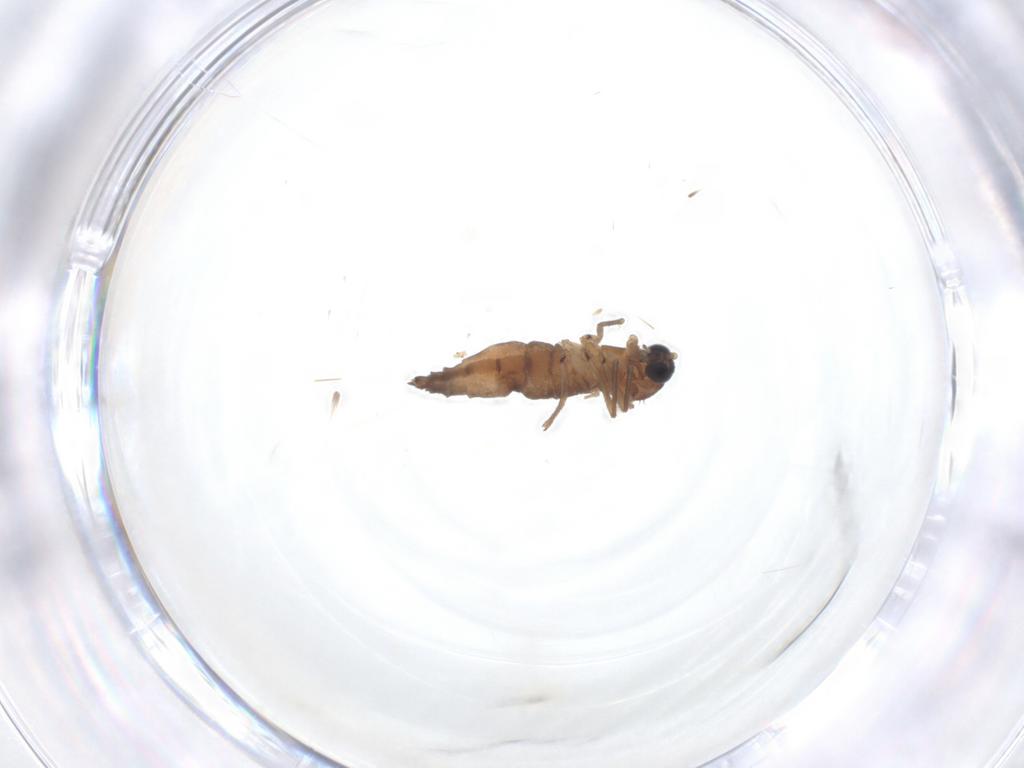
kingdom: Animalia
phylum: Arthropoda
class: Insecta
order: Diptera
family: Sciaridae
